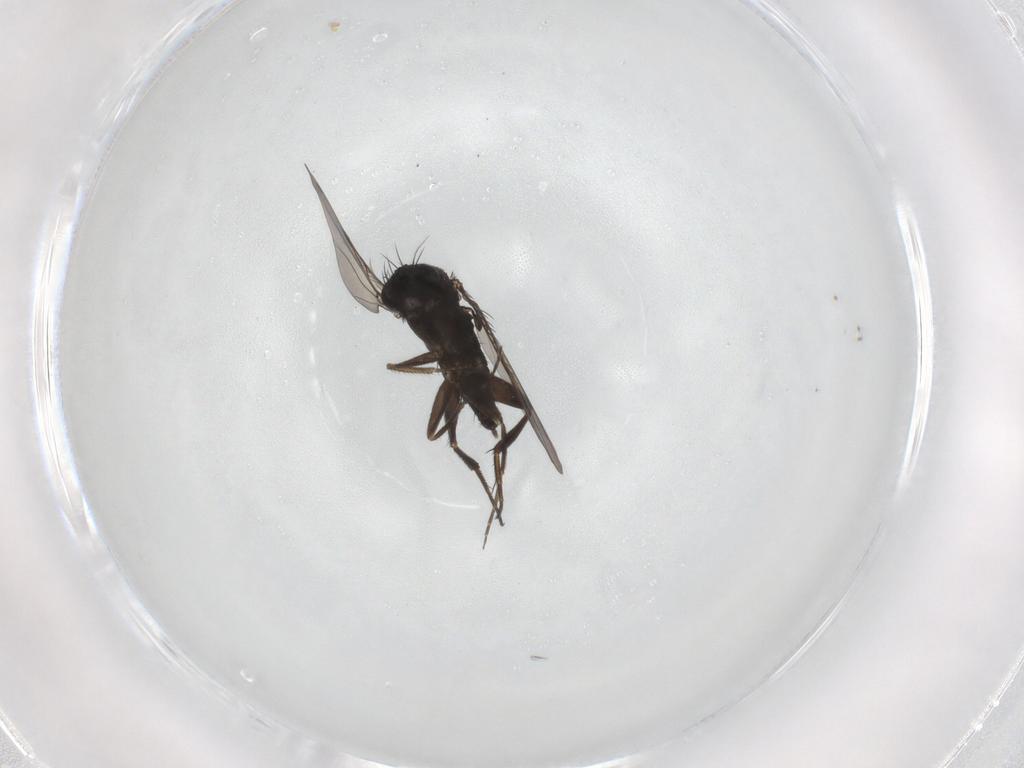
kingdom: Animalia
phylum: Arthropoda
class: Insecta
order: Diptera
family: Phoridae
